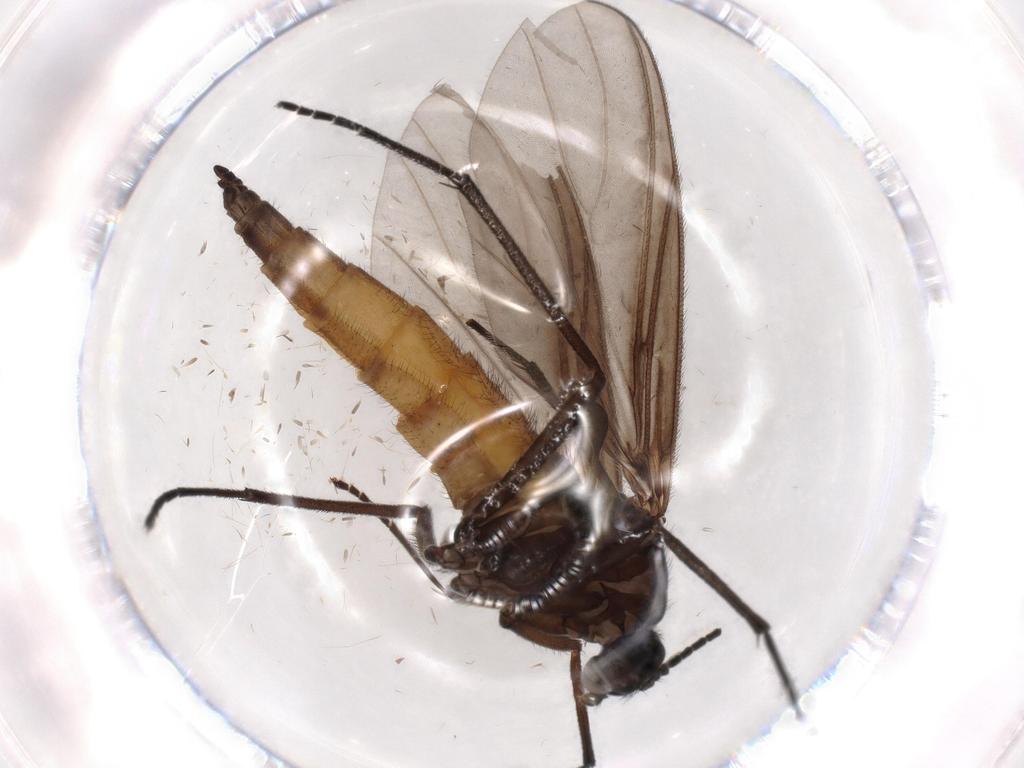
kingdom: Animalia
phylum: Arthropoda
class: Insecta
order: Diptera
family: Sciaridae
